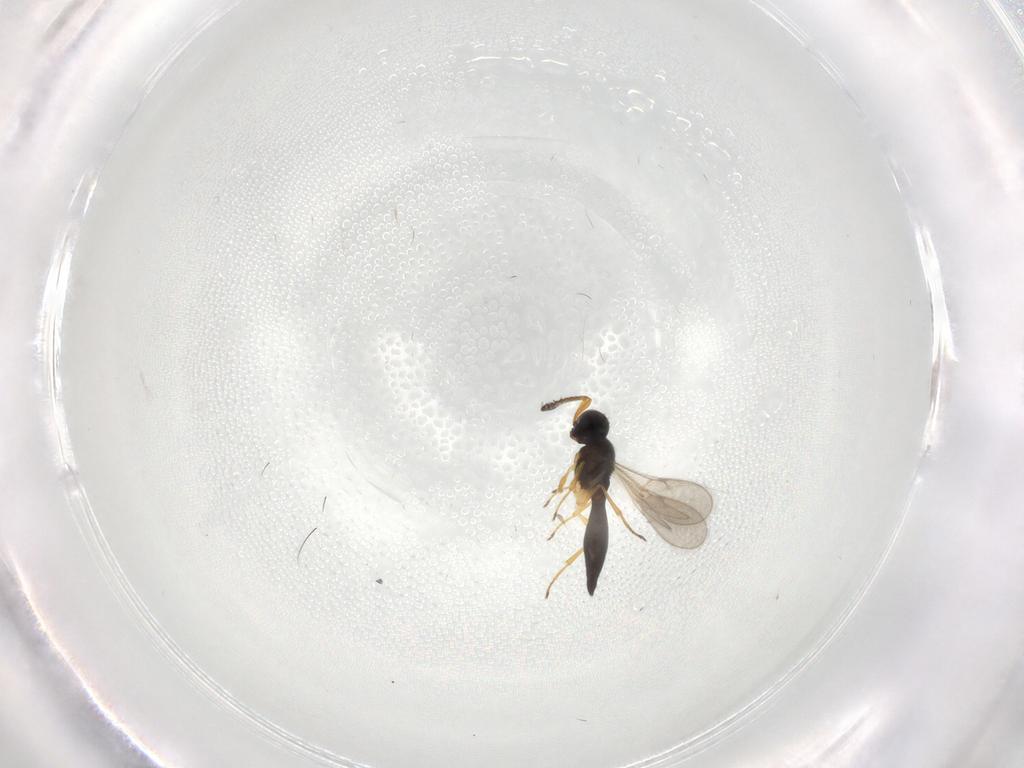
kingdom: Animalia
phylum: Arthropoda
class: Insecta
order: Hymenoptera
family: Scelionidae
